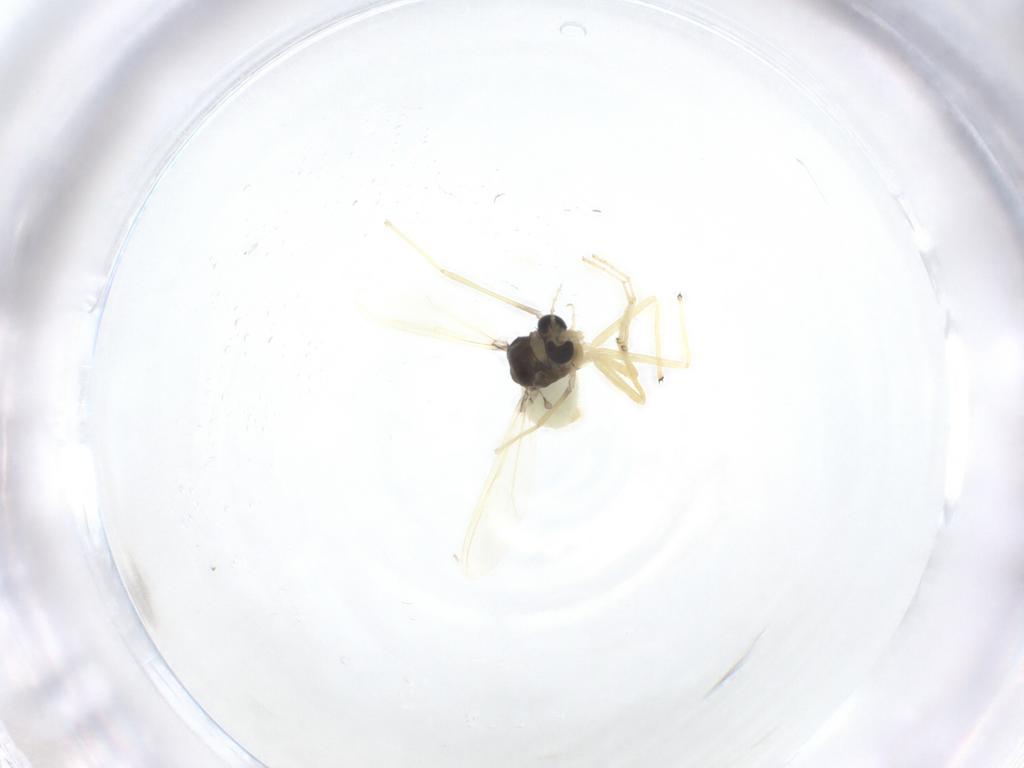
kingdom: Animalia
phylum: Arthropoda
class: Insecta
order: Diptera
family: Chironomidae
